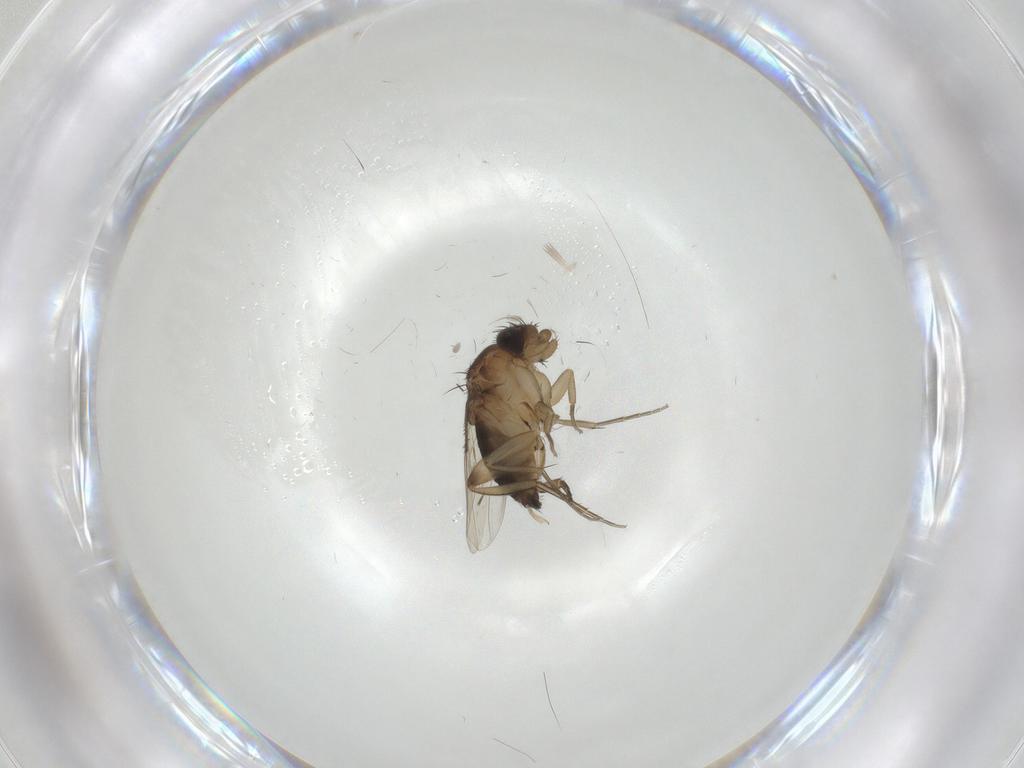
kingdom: Animalia
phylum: Arthropoda
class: Insecta
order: Diptera
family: Phoridae
